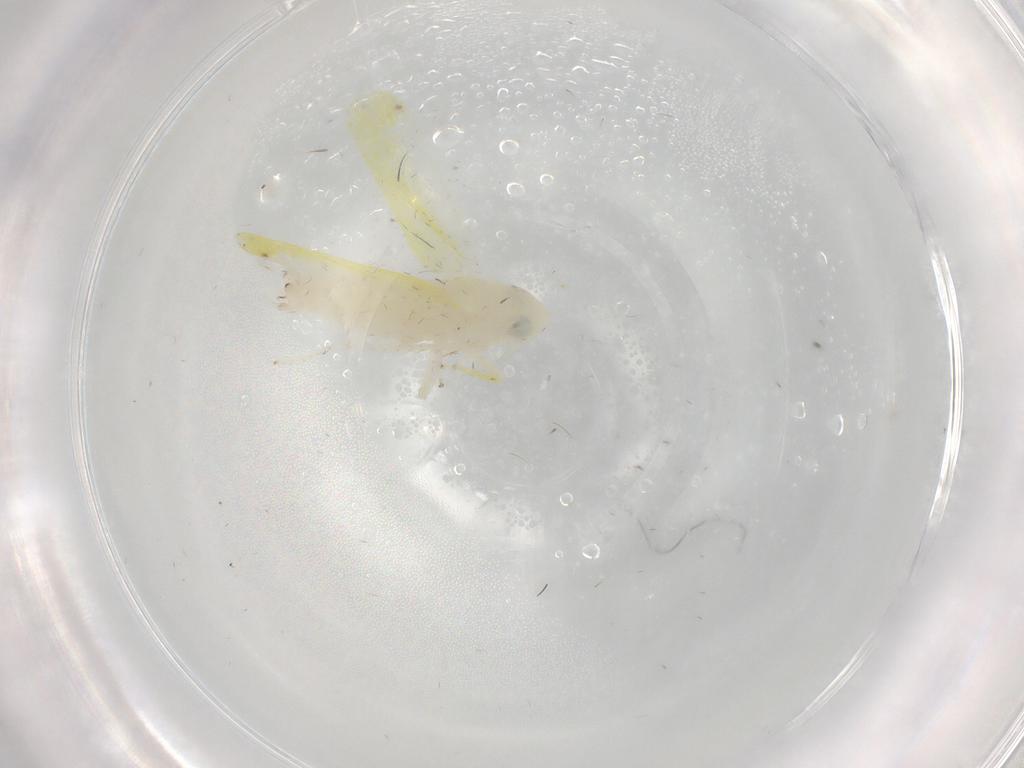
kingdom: Animalia
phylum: Arthropoda
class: Insecta
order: Hemiptera
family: Cicadellidae
